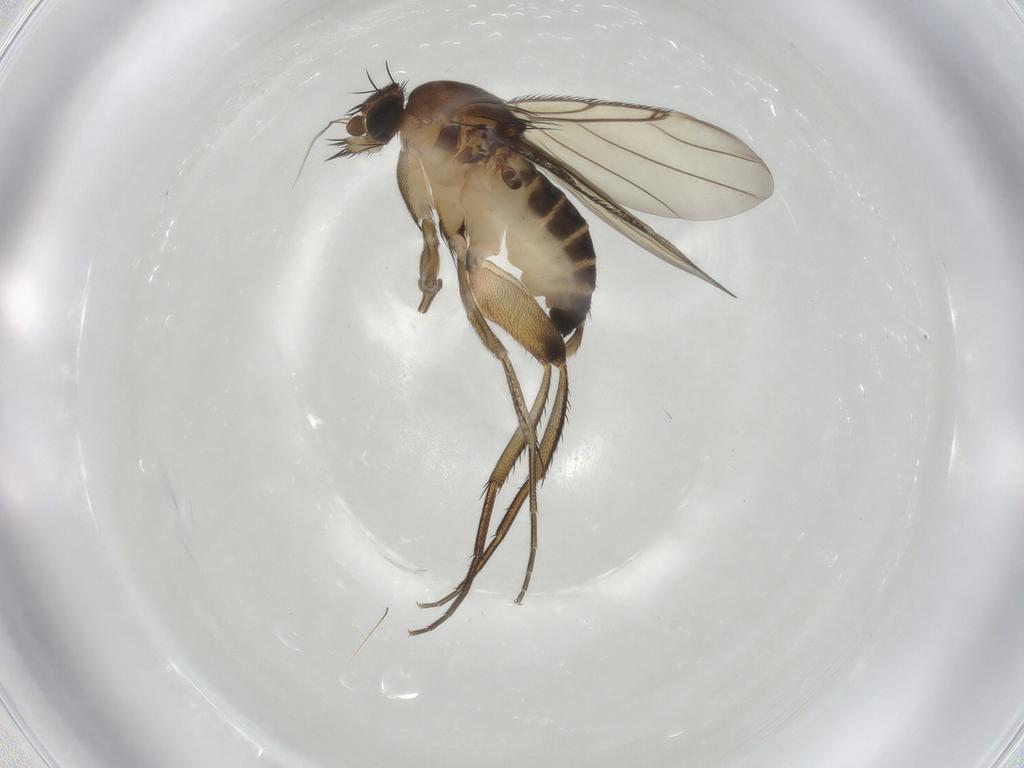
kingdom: Animalia
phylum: Arthropoda
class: Insecta
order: Diptera
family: Phoridae
